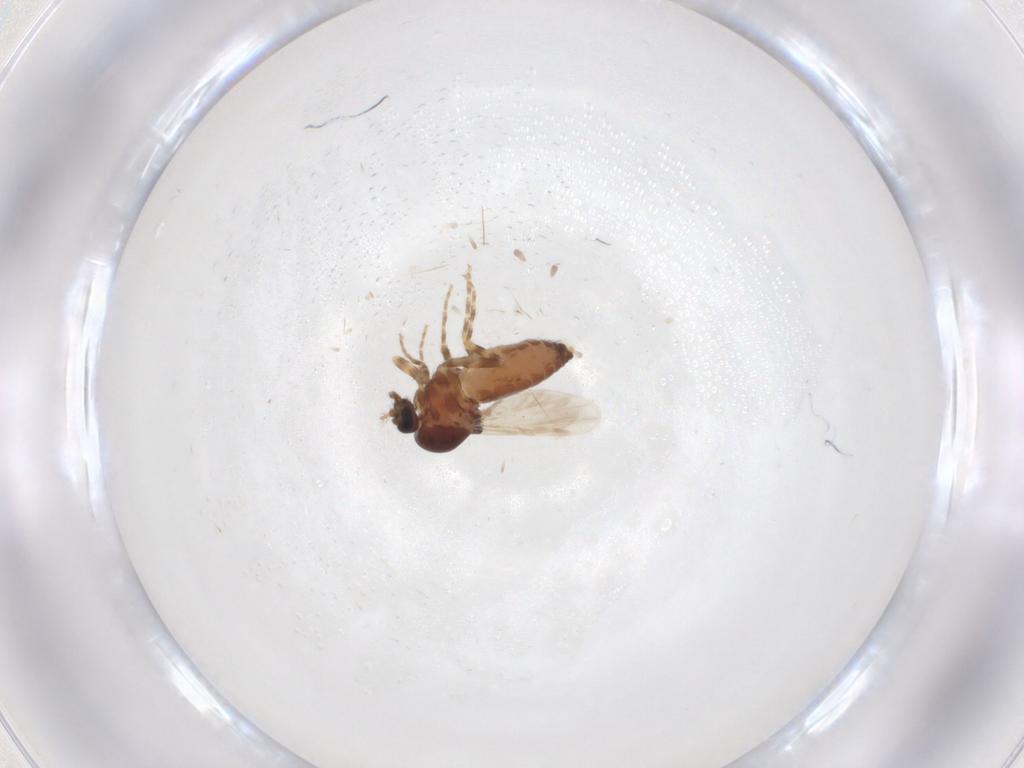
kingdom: Animalia
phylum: Arthropoda
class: Insecta
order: Diptera
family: Ceratopogonidae
